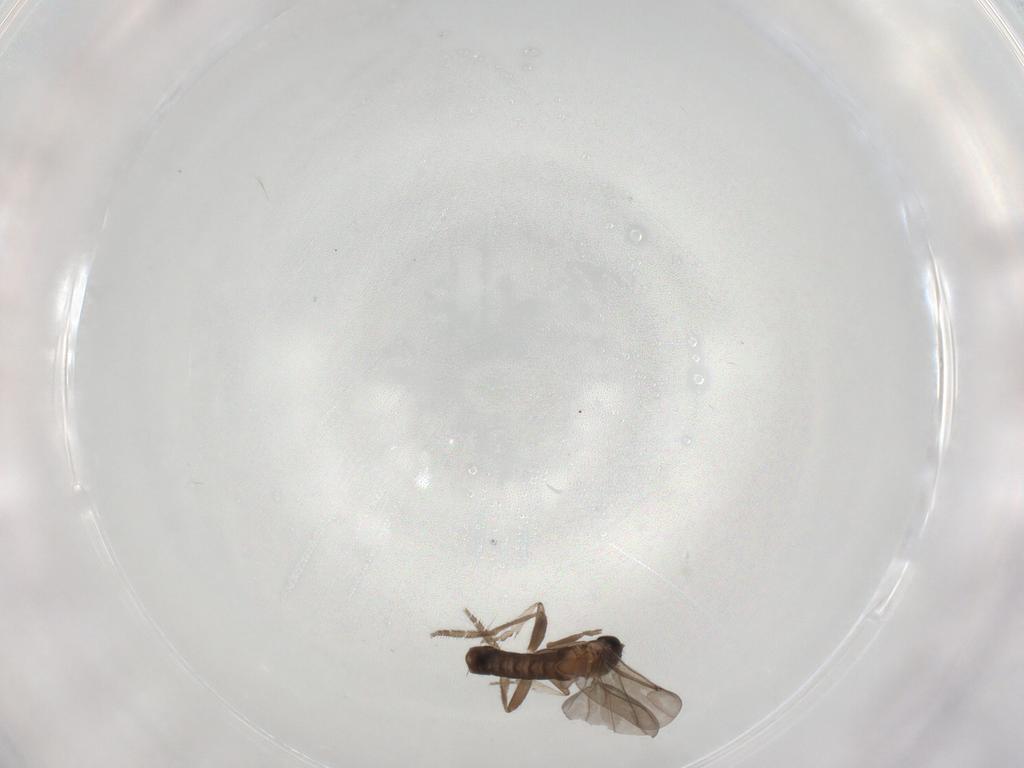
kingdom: Animalia
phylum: Arthropoda
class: Insecta
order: Diptera
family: Phoridae
